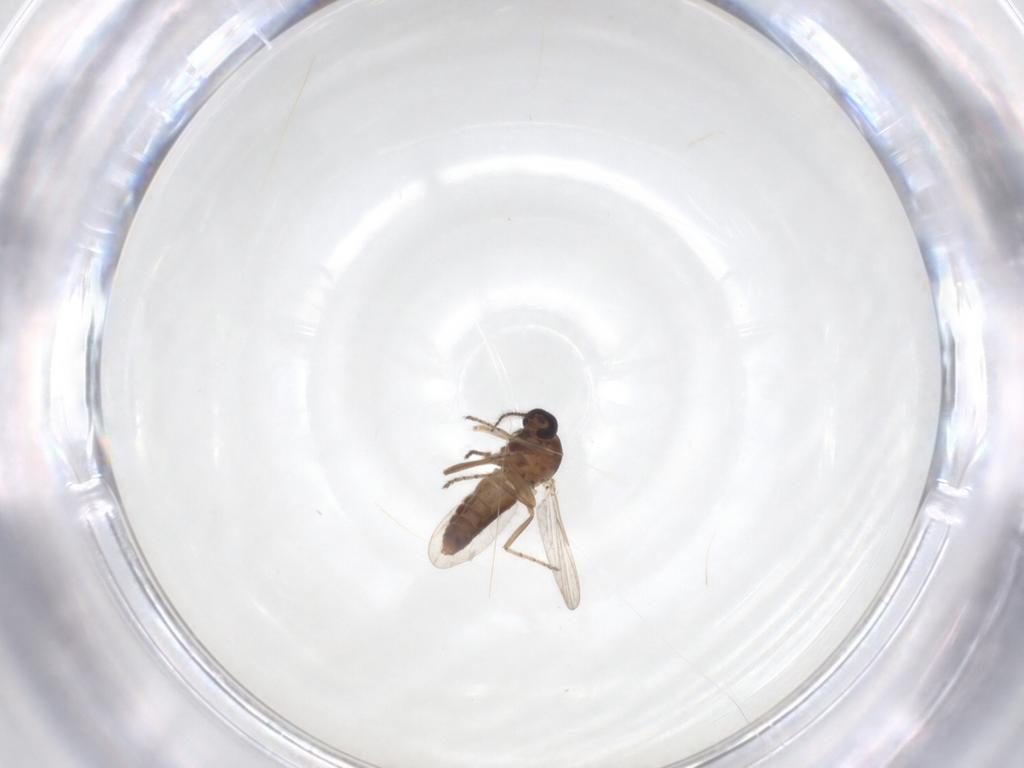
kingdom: Animalia
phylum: Arthropoda
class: Insecta
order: Diptera
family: Ceratopogonidae
